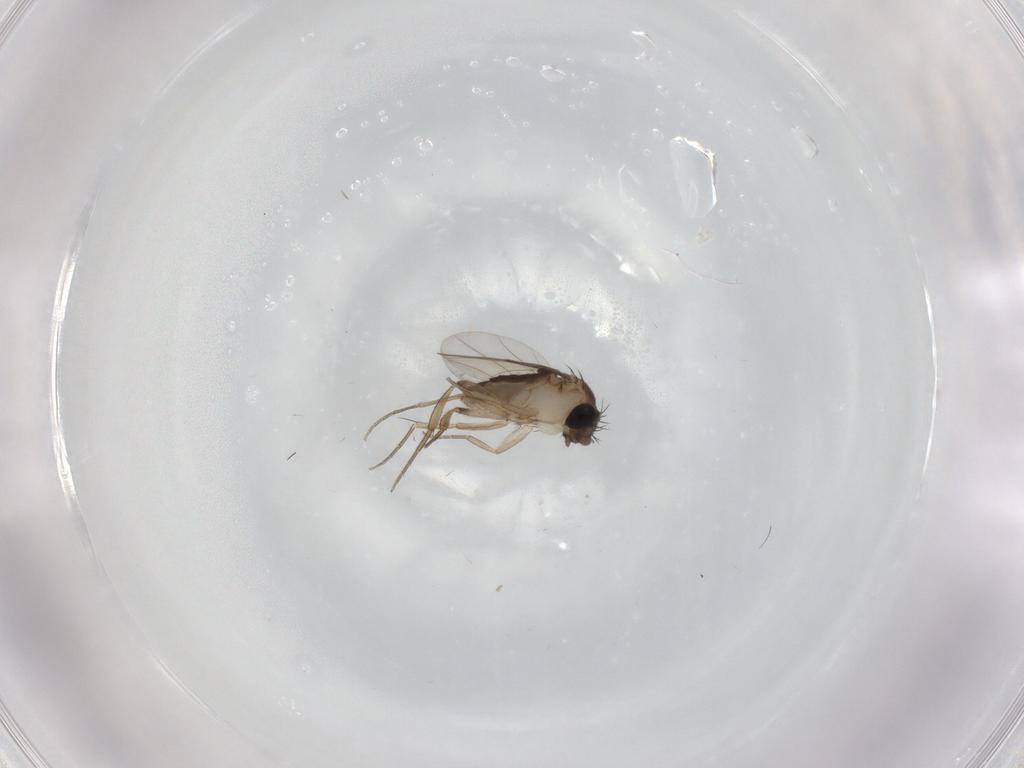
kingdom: Animalia
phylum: Arthropoda
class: Insecta
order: Diptera
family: Phoridae
